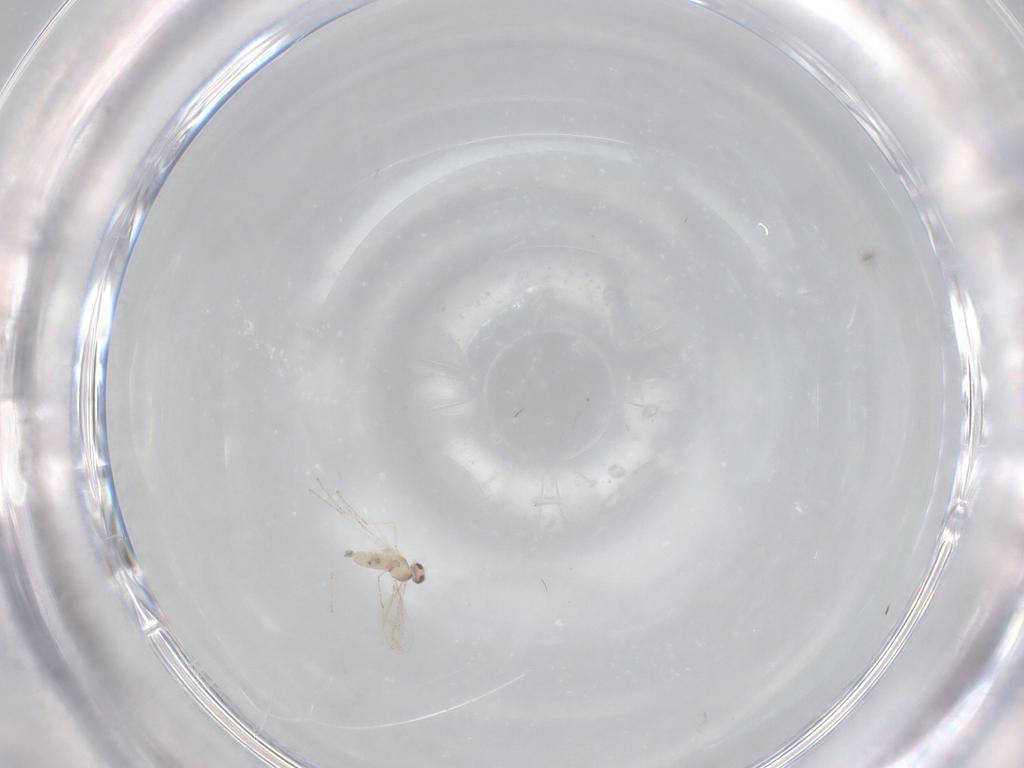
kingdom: Animalia
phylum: Arthropoda
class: Insecta
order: Diptera
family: Cecidomyiidae
